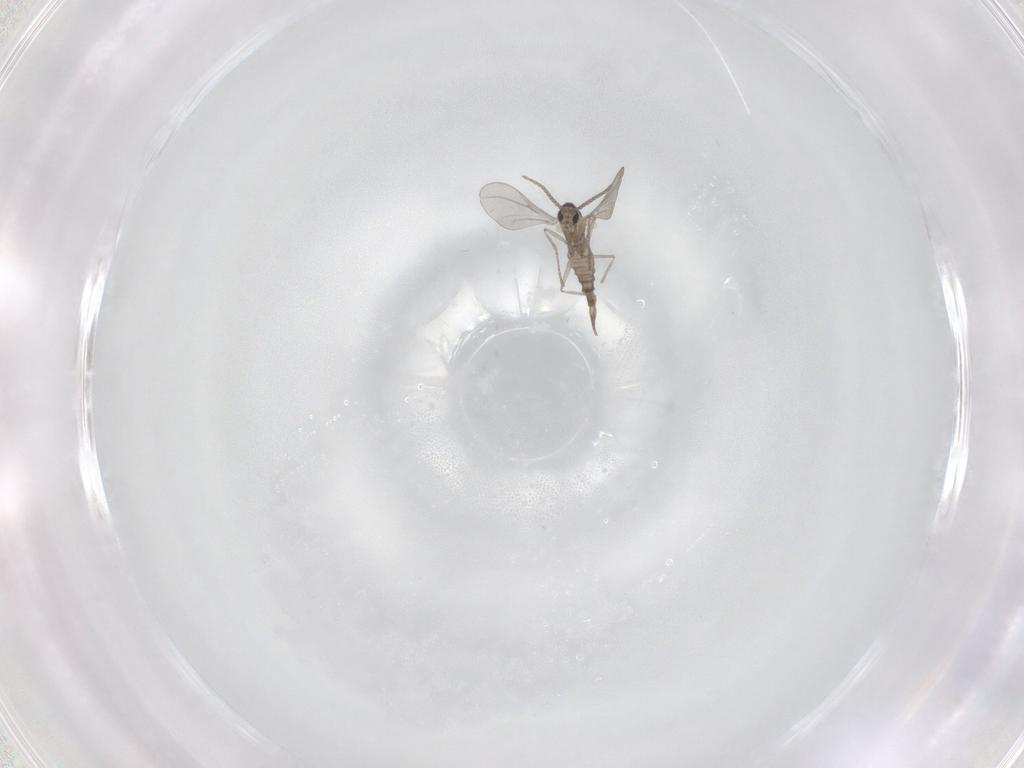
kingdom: Animalia
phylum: Arthropoda
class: Insecta
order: Diptera
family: Cecidomyiidae
